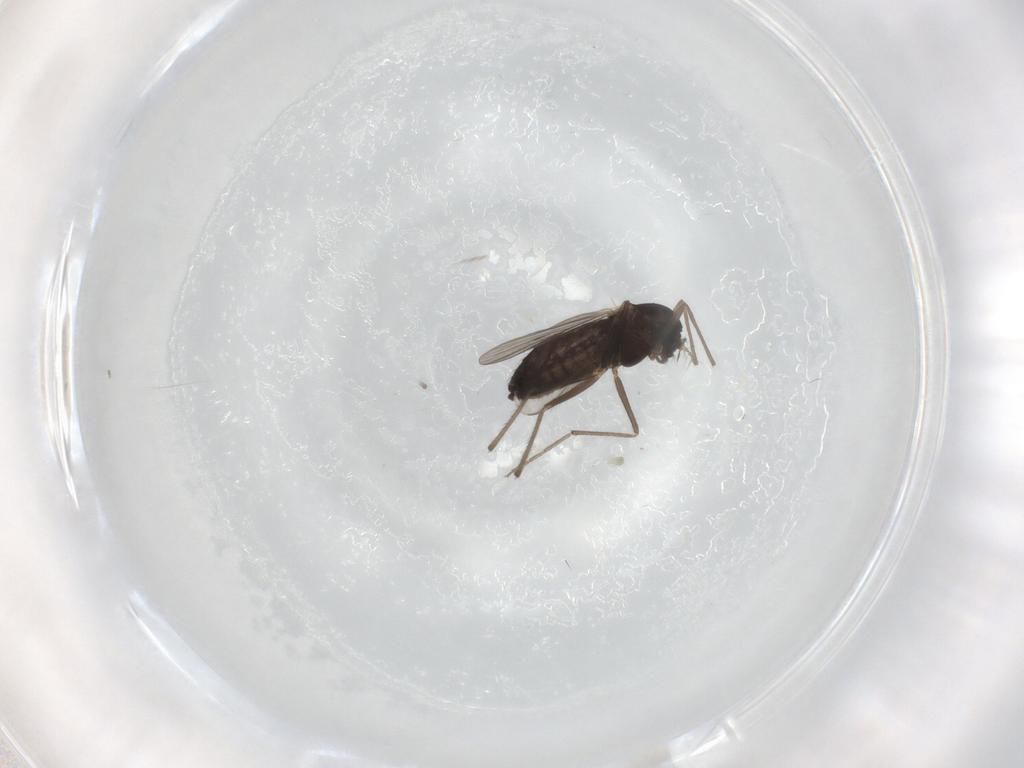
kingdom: Animalia
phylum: Arthropoda
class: Insecta
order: Diptera
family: Chironomidae
